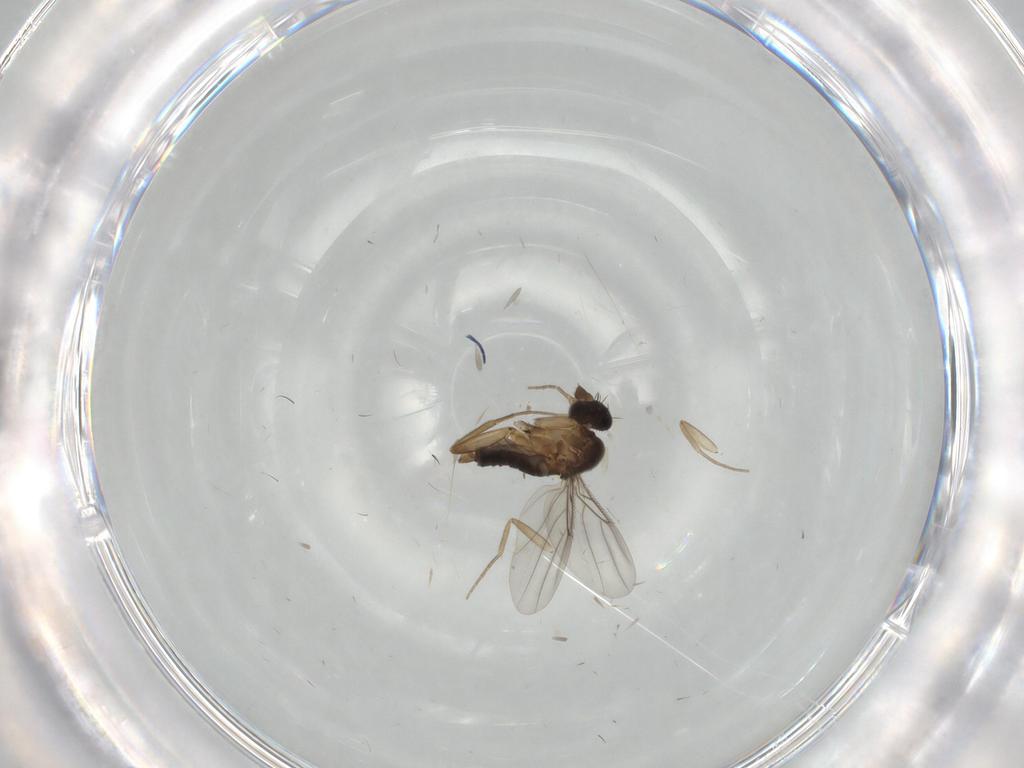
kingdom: Animalia
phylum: Arthropoda
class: Insecta
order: Diptera
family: Phoridae
